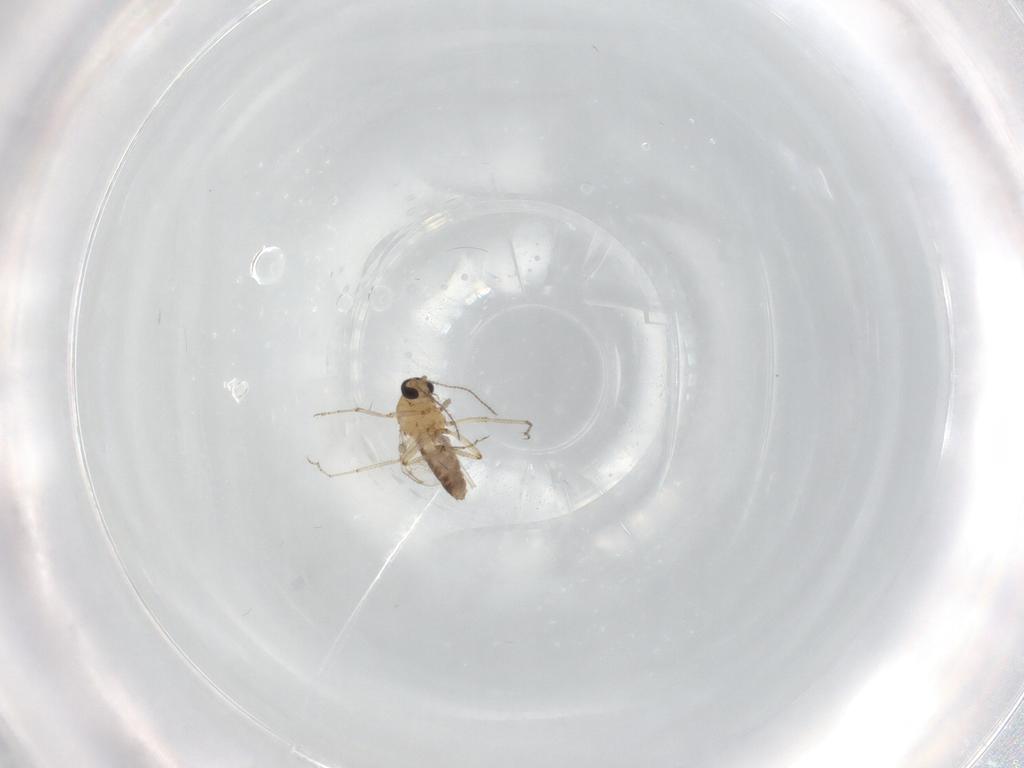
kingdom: Animalia
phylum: Arthropoda
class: Insecta
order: Diptera
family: Ceratopogonidae
